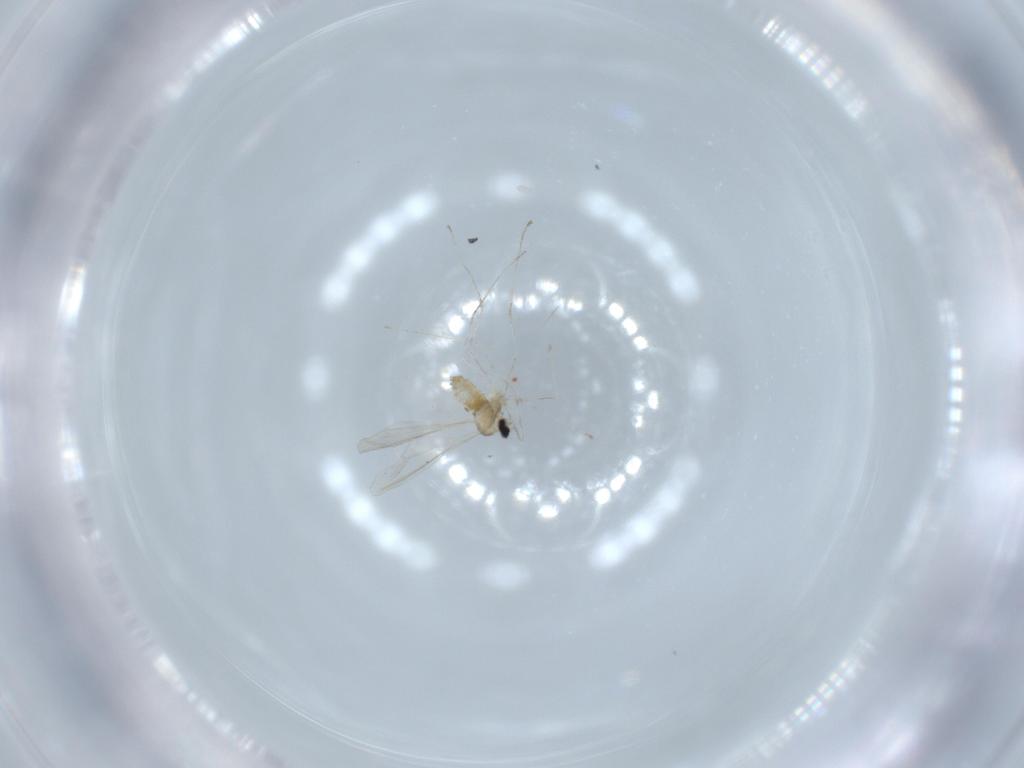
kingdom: Animalia
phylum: Arthropoda
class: Insecta
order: Diptera
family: Cecidomyiidae
